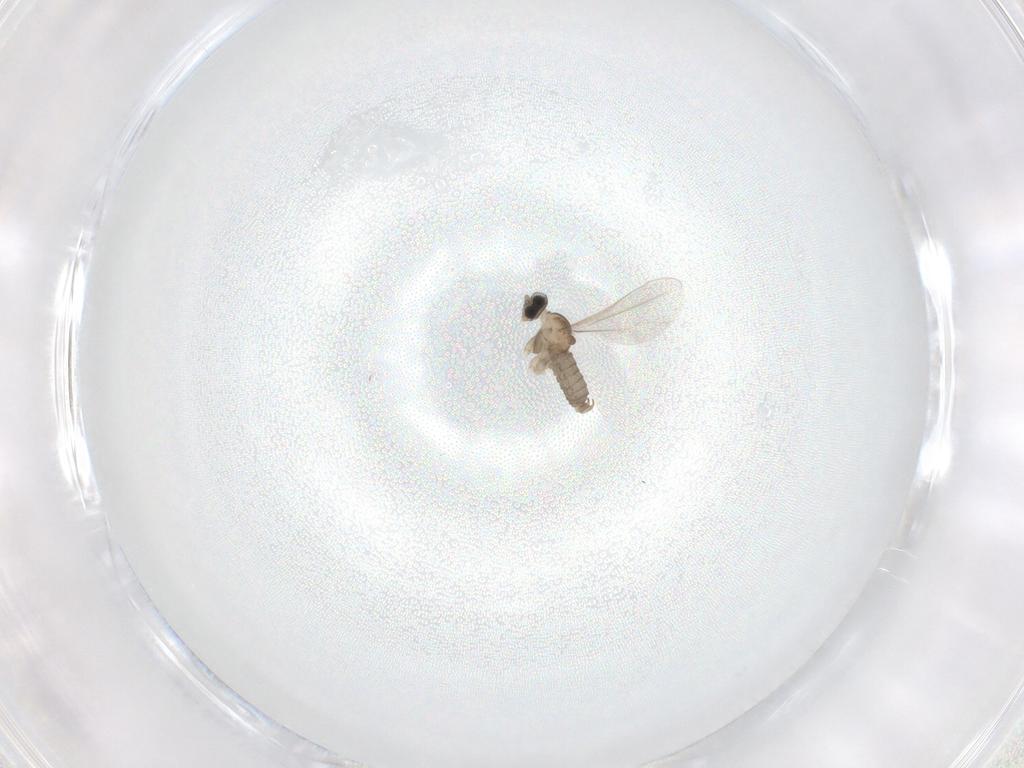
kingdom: Animalia
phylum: Arthropoda
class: Insecta
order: Diptera
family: Cecidomyiidae
